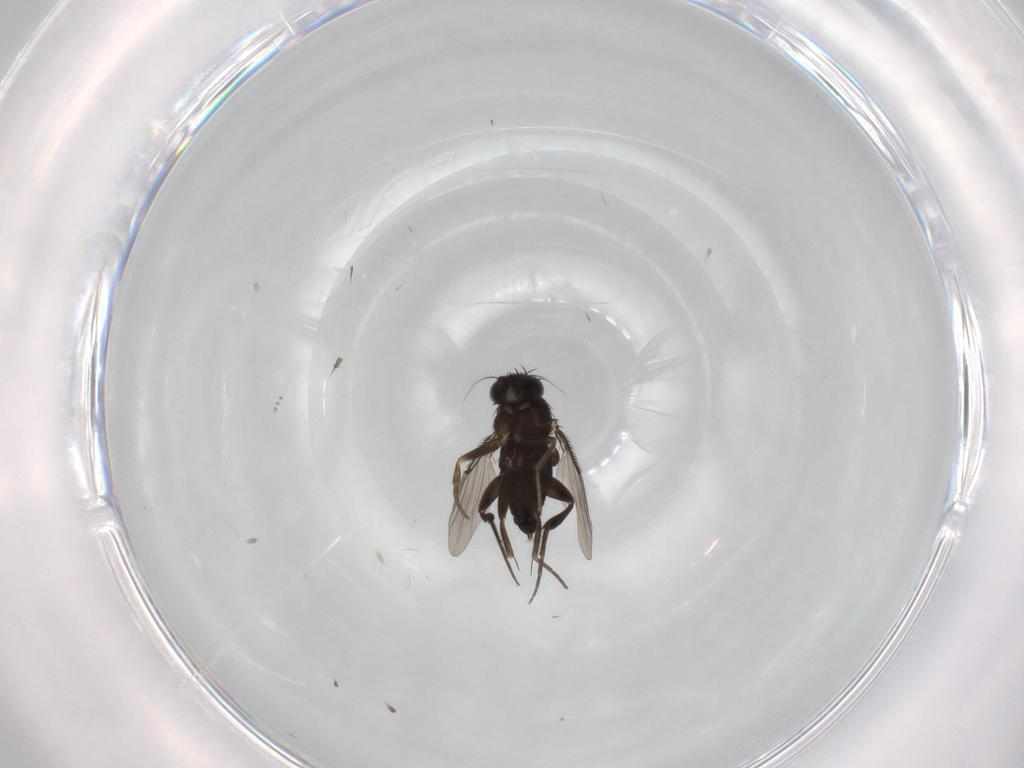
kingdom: Animalia
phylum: Arthropoda
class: Insecta
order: Diptera
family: Phoridae
